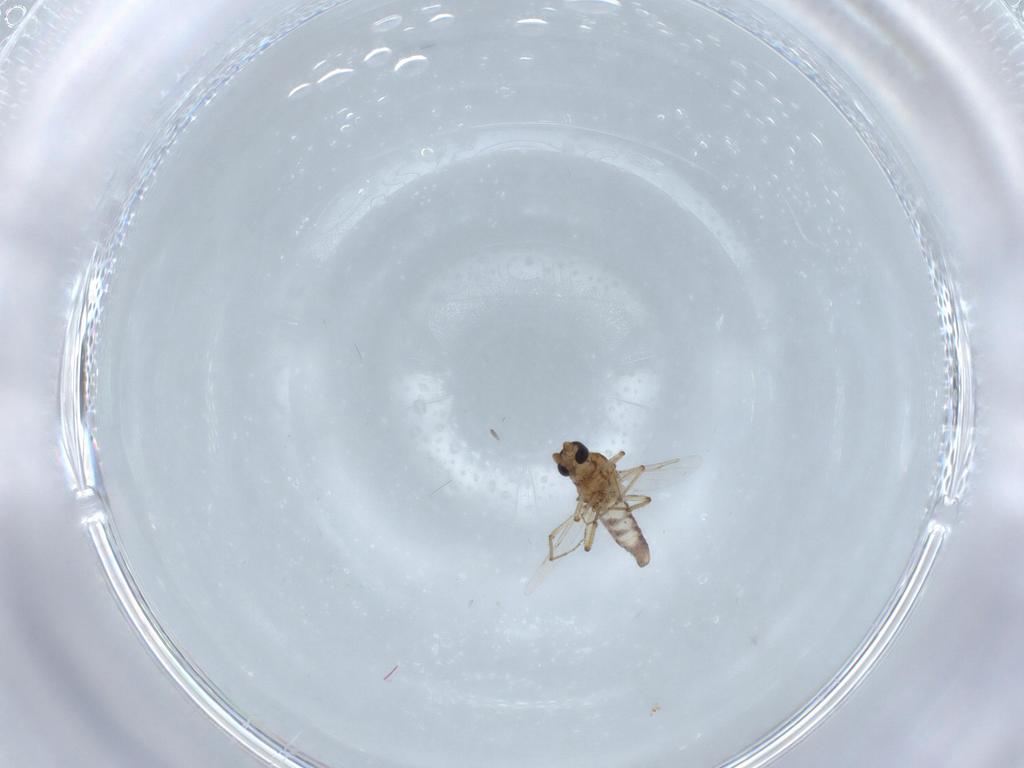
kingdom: Animalia
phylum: Arthropoda
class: Insecta
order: Diptera
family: Ceratopogonidae
